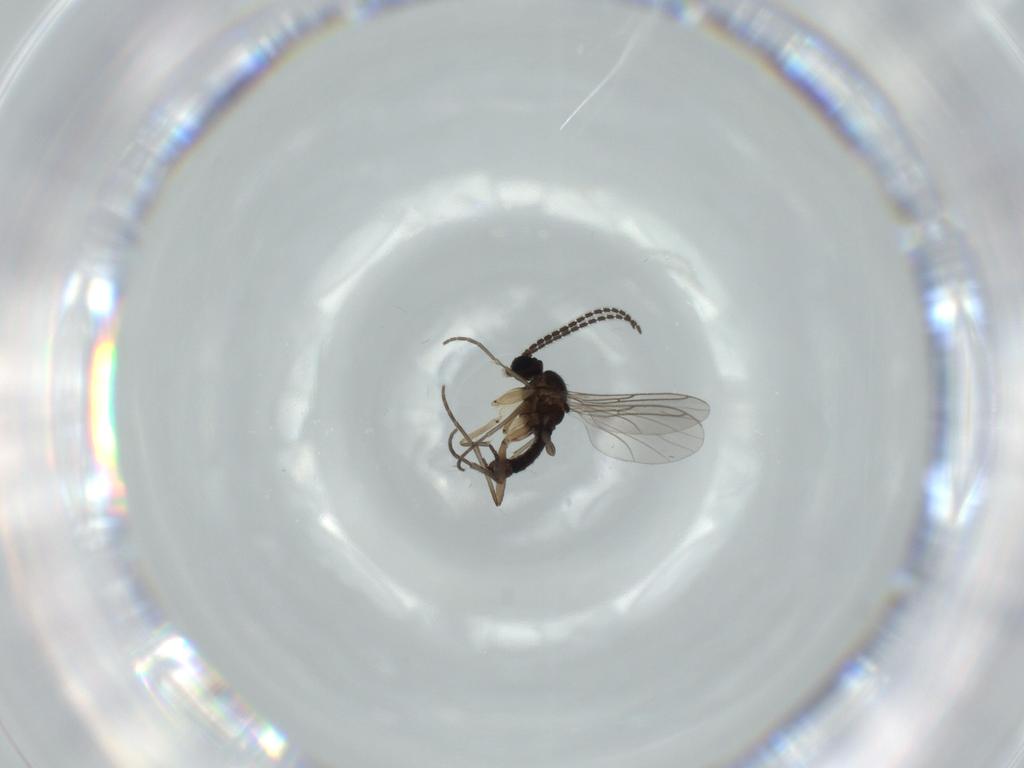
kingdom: Animalia
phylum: Arthropoda
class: Insecta
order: Diptera
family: Sciaridae
